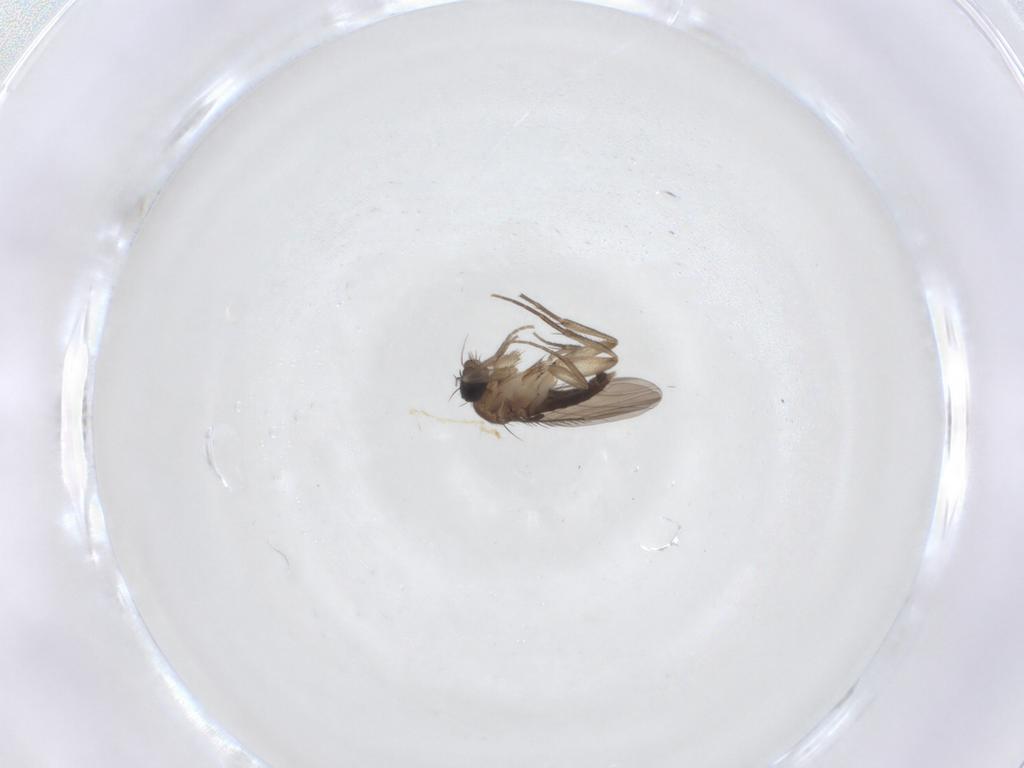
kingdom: Animalia
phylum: Arthropoda
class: Insecta
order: Diptera
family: Phoridae
